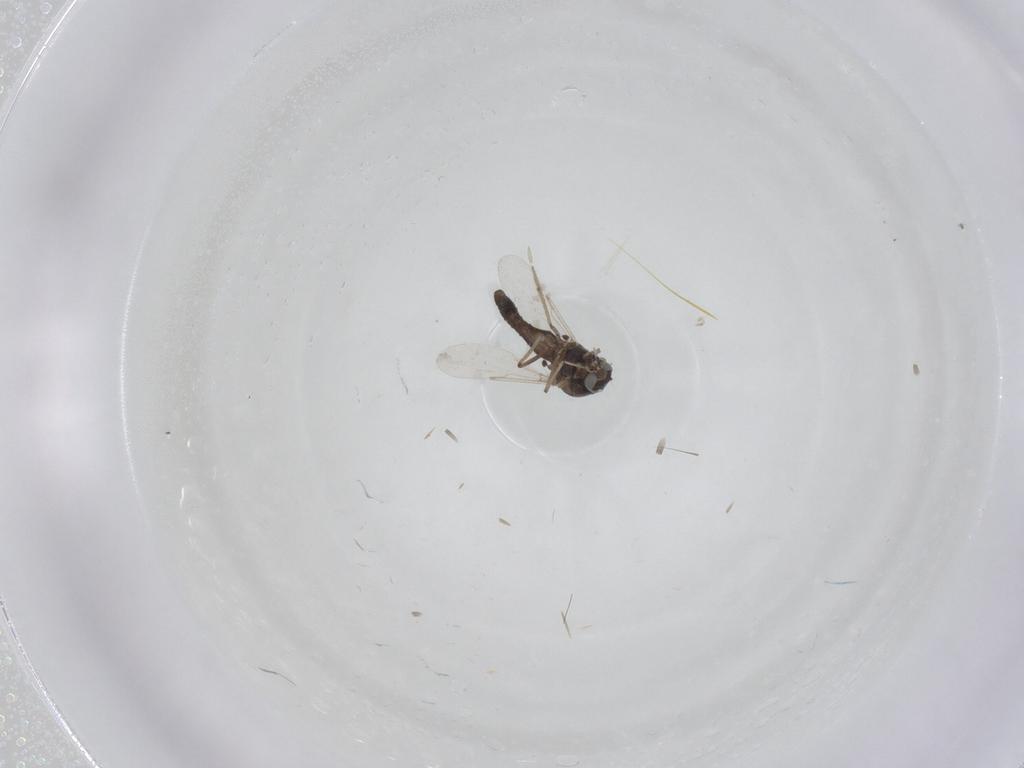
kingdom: Animalia
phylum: Arthropoda
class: Insecta
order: Diptera
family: Ceratopogonidae
